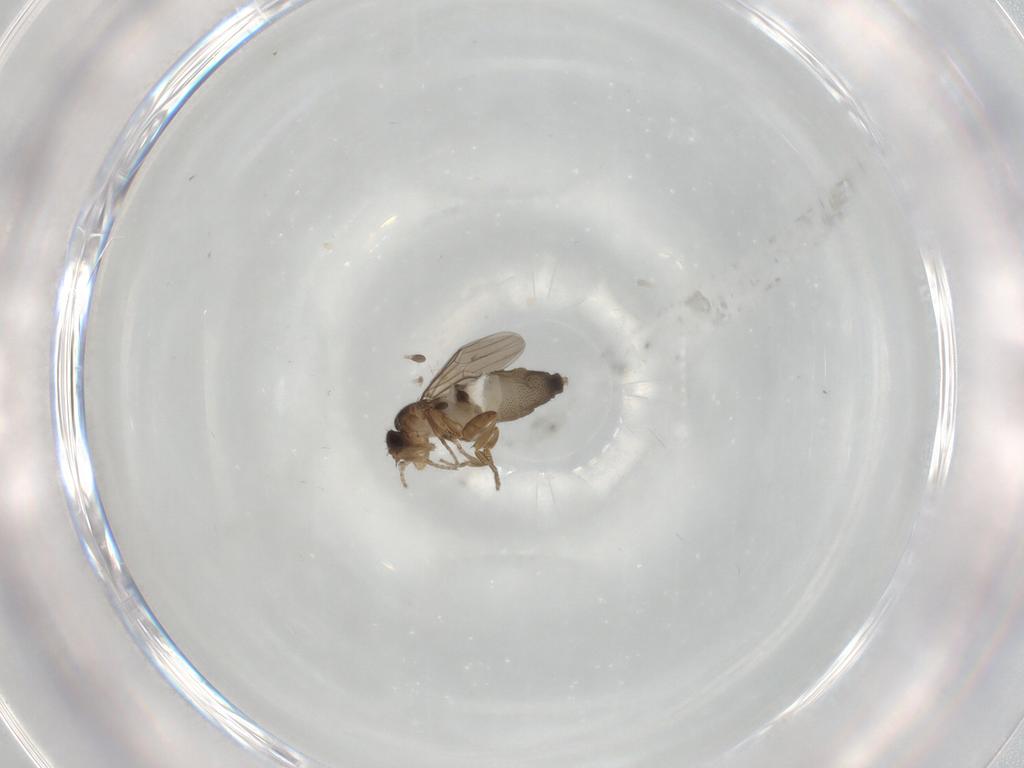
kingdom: Animalia
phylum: Arthropoda
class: Insecta
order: Diptera
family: Phoridae
